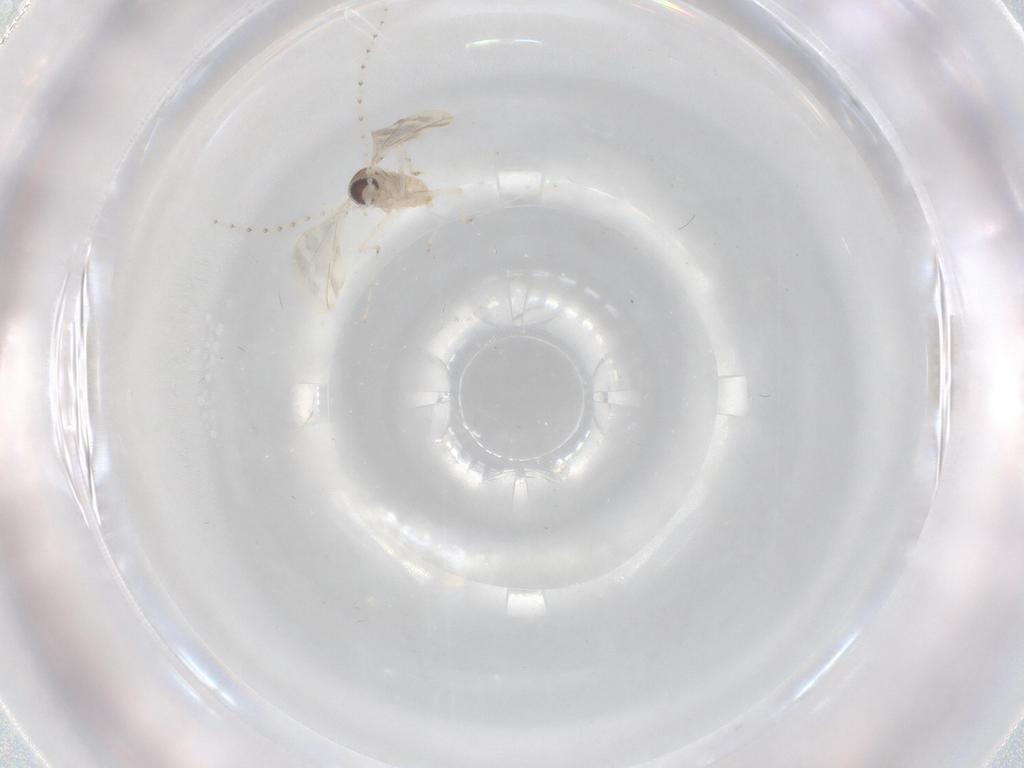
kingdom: Animalia
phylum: Arthropoda
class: Insecta
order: Diptera
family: Cecidomyiidae
